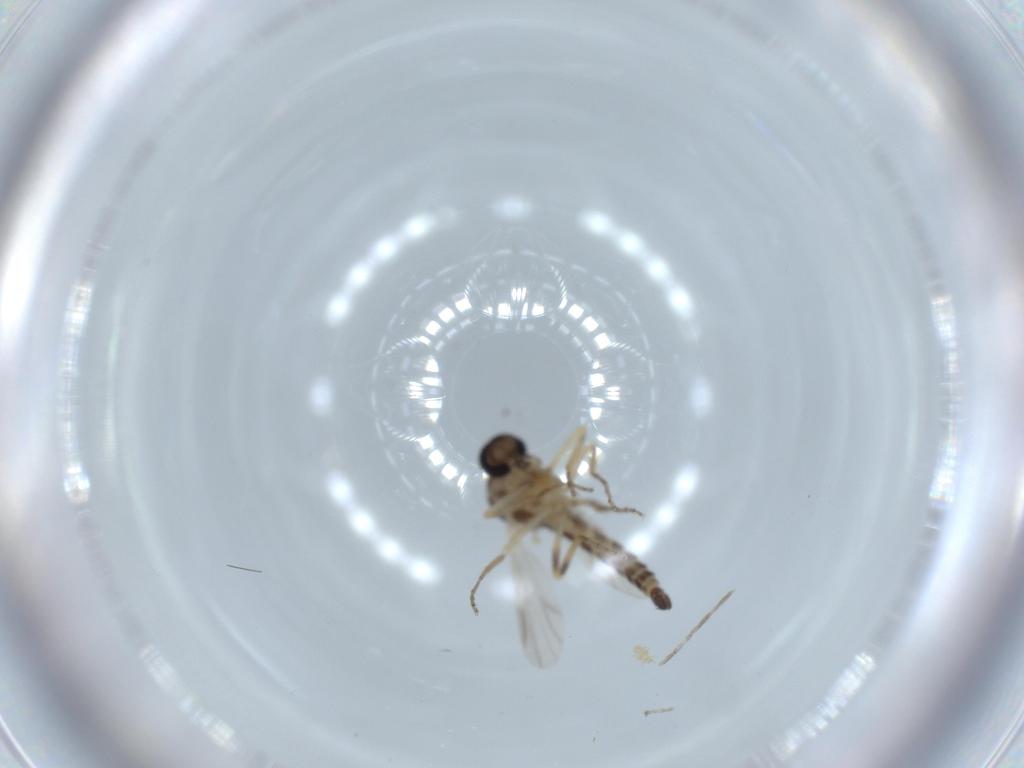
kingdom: Animalia
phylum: Arthropoda
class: Insecta
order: Diptera
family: Ceratopogonidae
